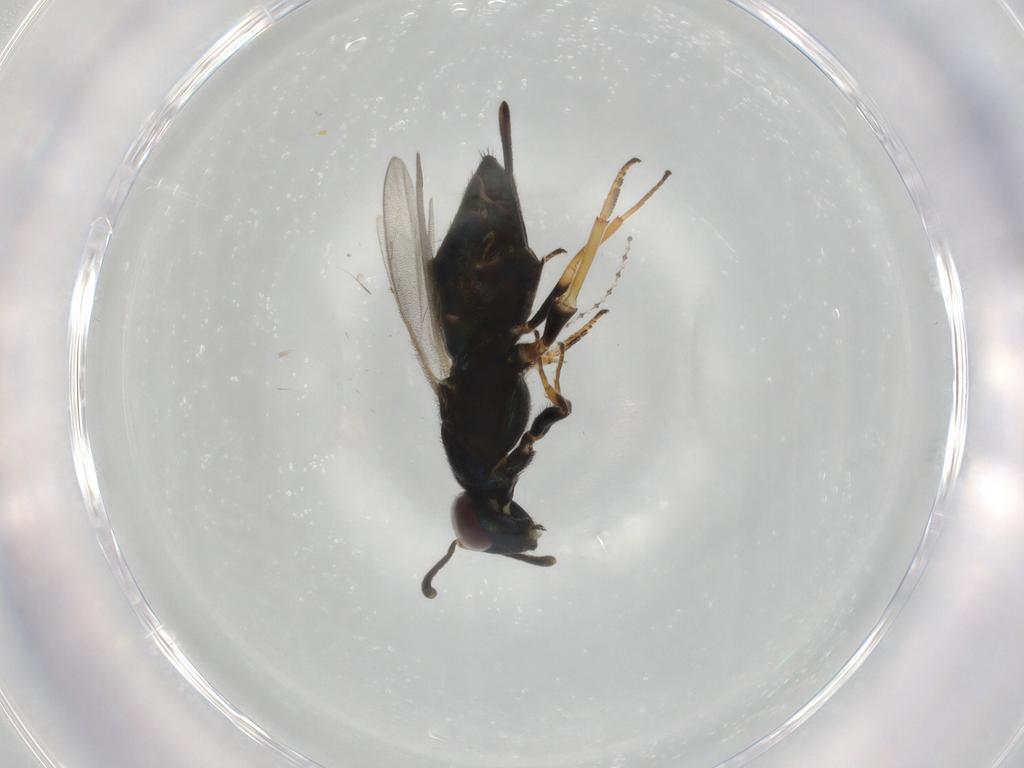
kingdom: Animalia
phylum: Arthropoda
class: Insecta
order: Hymenoptera
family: Eupelmidae
